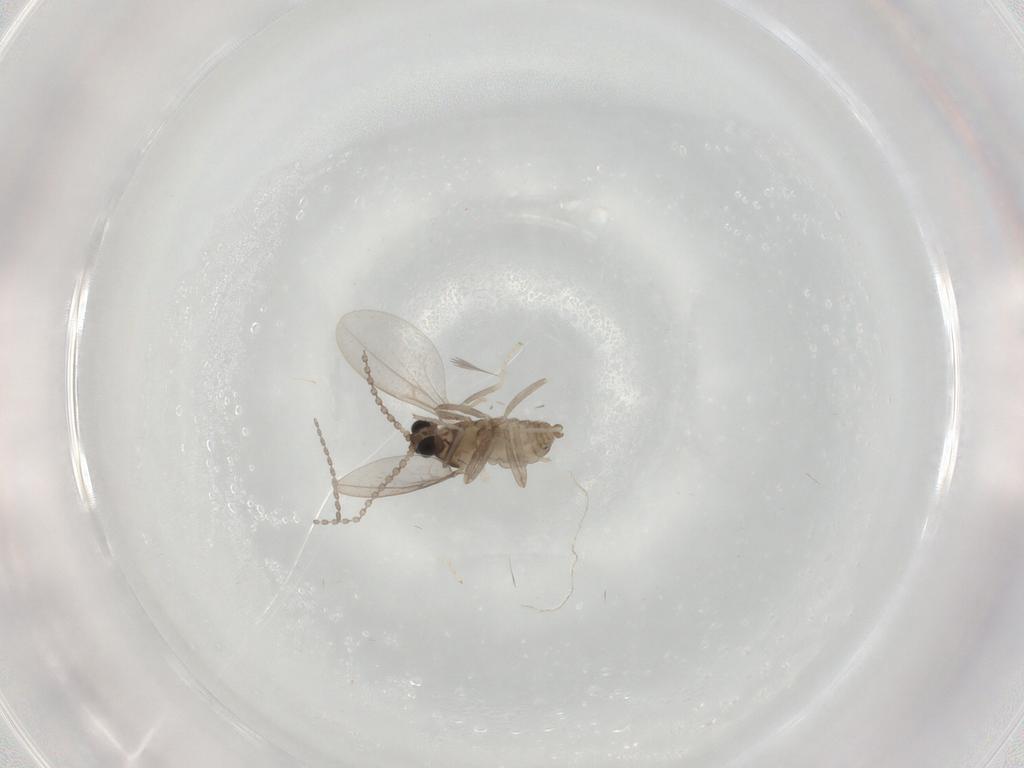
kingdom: Animalia
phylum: Arthropoda
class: Insecta
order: Diptera
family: Cecidomyiidae
